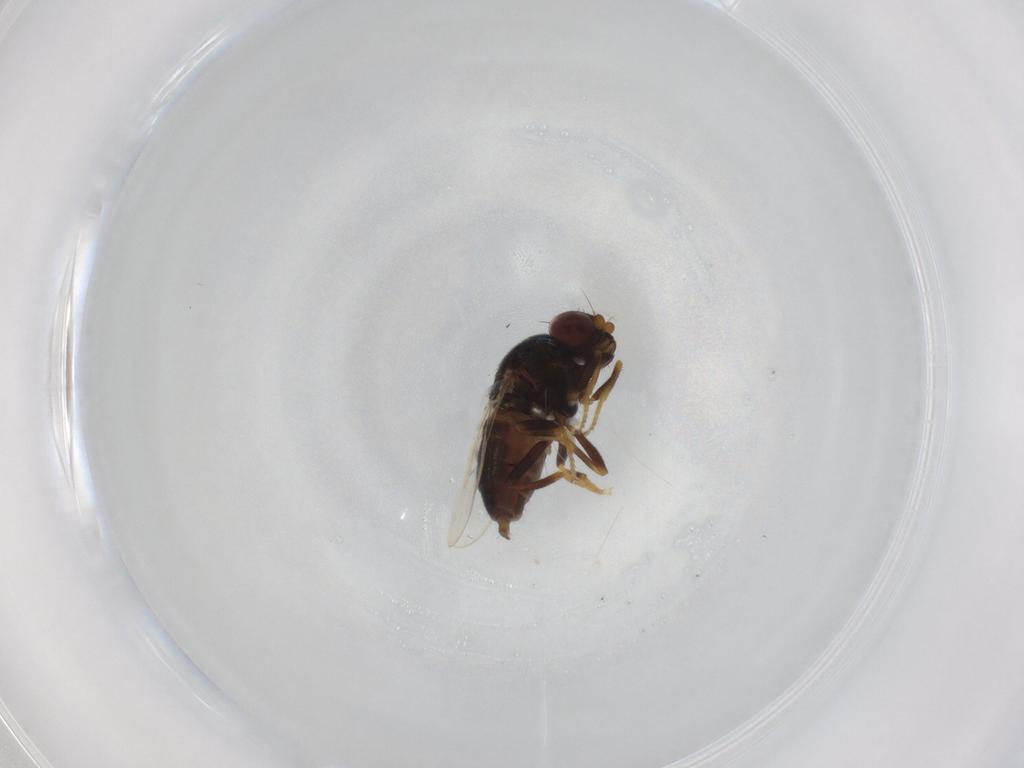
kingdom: Animalia
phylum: Arthropoda
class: Insecta
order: Diptera
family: Chloropidae
